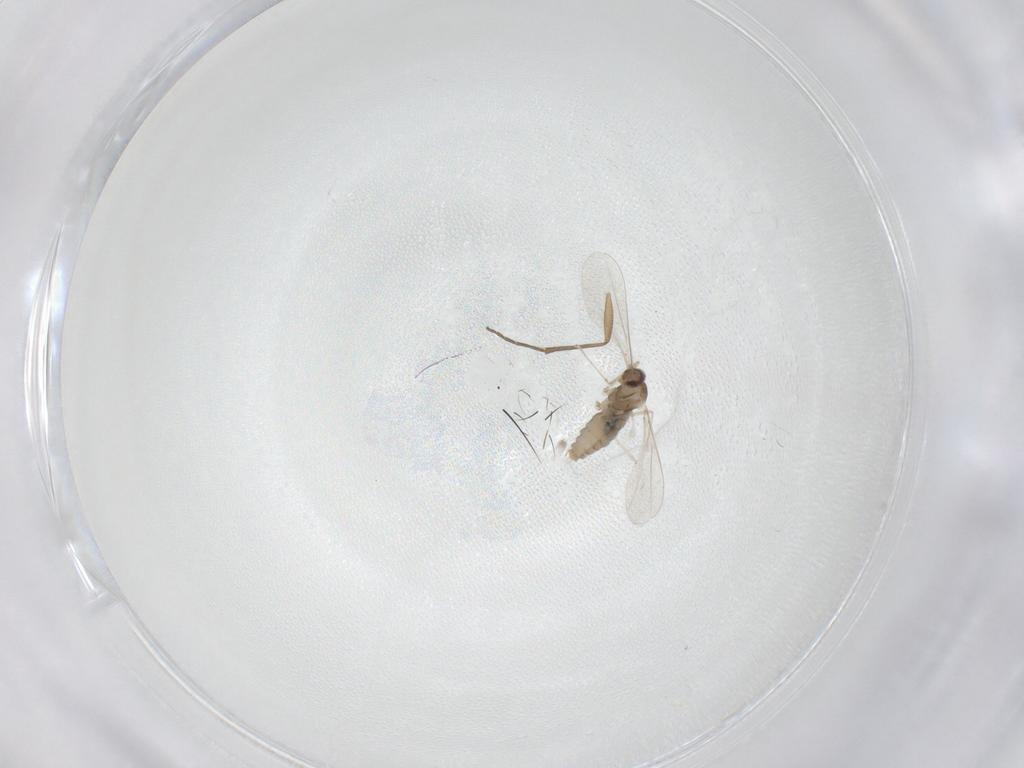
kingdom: Animalia
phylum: Arthropoda
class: Insecta
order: Diptera
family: Cecidomyiidae
